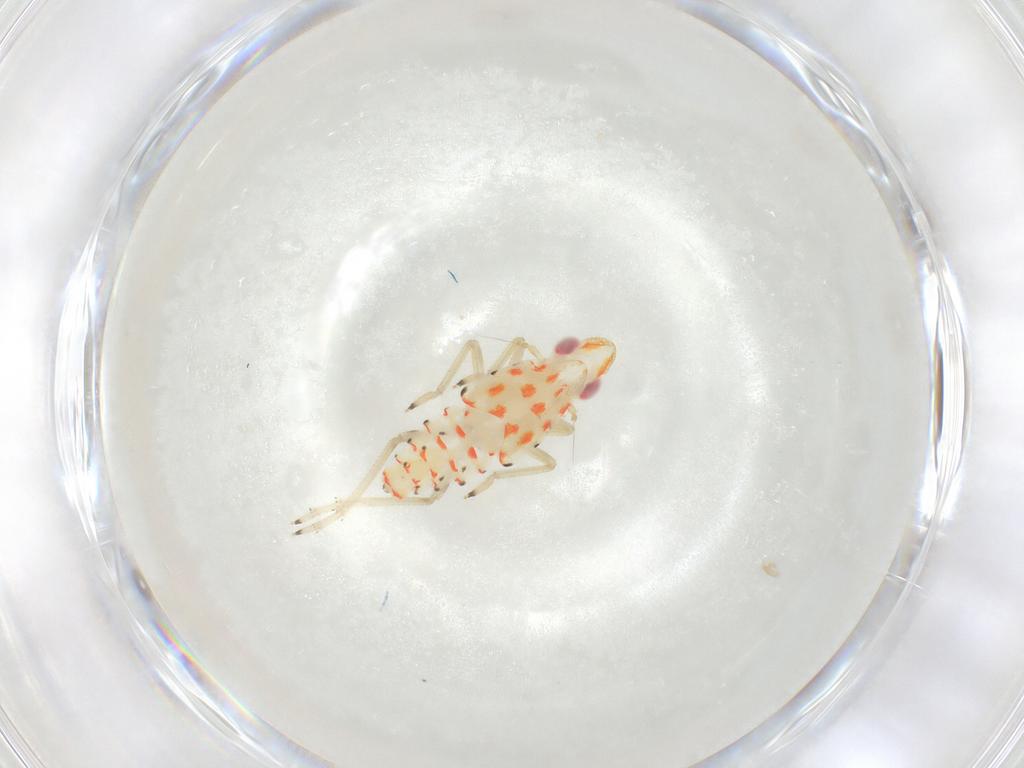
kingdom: Animalia
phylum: Arthropoda
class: Insecta
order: Hemiptera
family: Tropiduchidae
